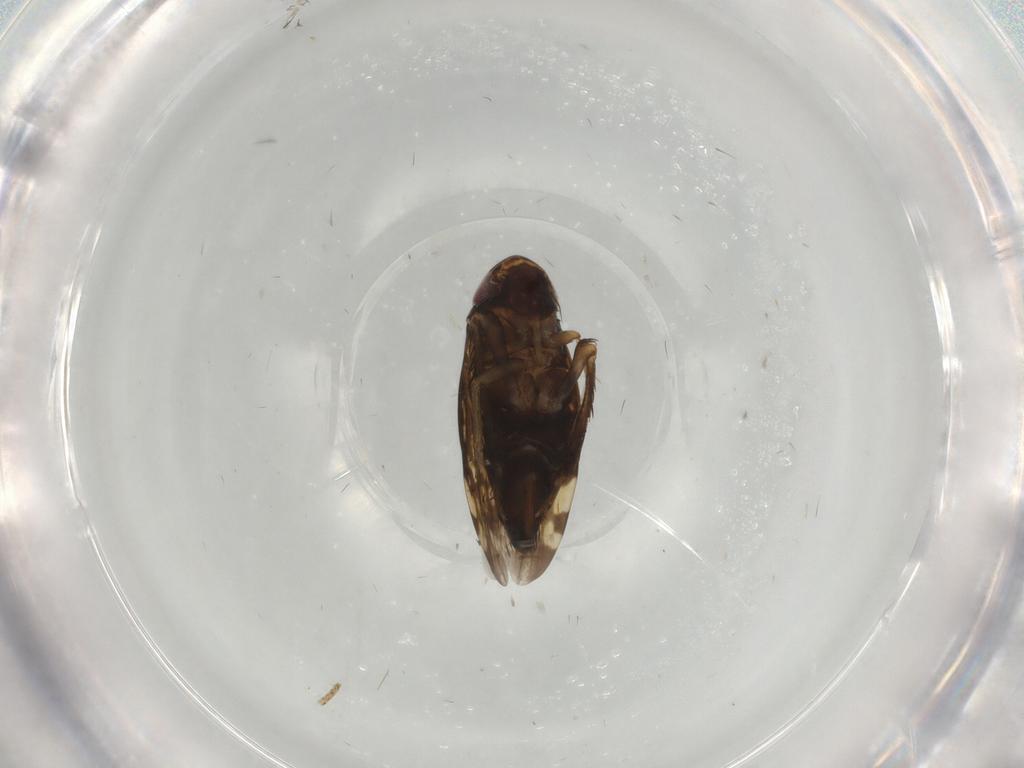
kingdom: Animalia
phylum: Arthropoda
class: Insecta
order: Hemiptera
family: Cicadellidae
